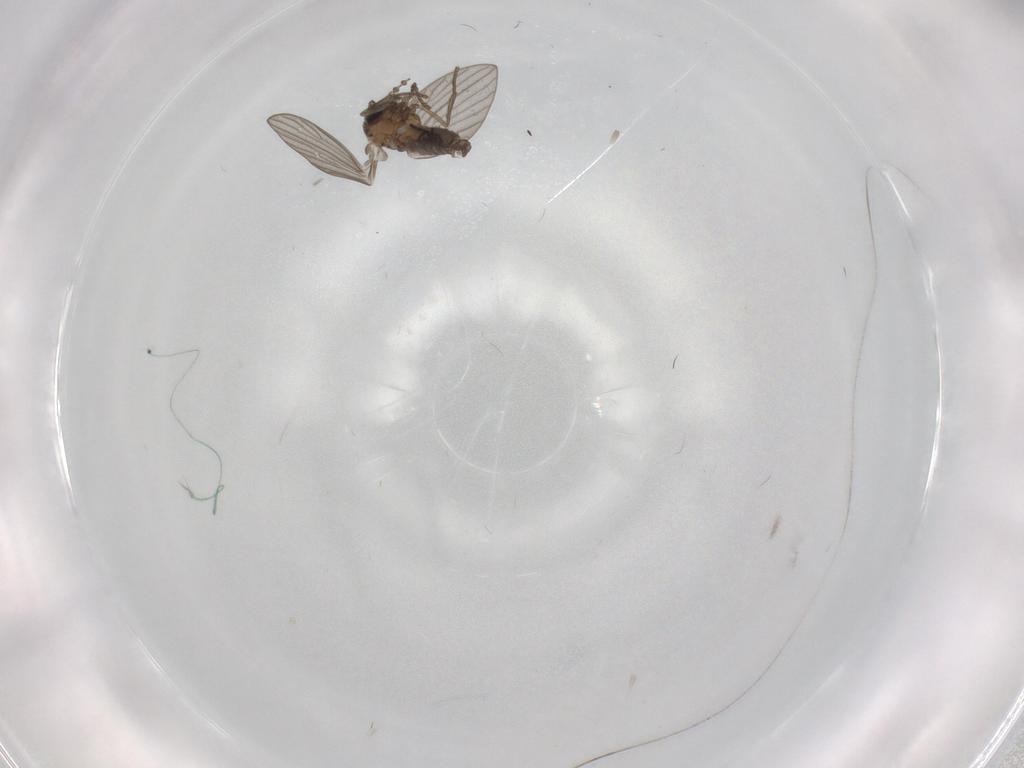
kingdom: Animalia
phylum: Arthropoda
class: Insecta
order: Diptera
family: Psychodidae
